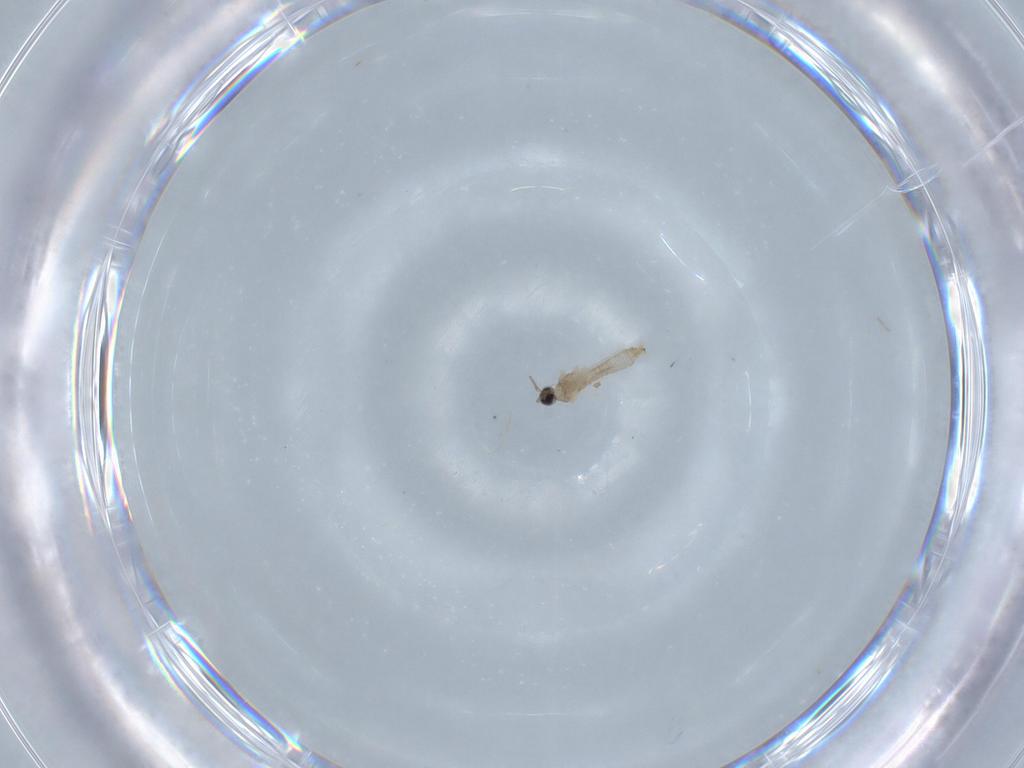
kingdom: Animalia
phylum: Arthropoda
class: Insecta
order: Diptera
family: Cecidomyiidae
